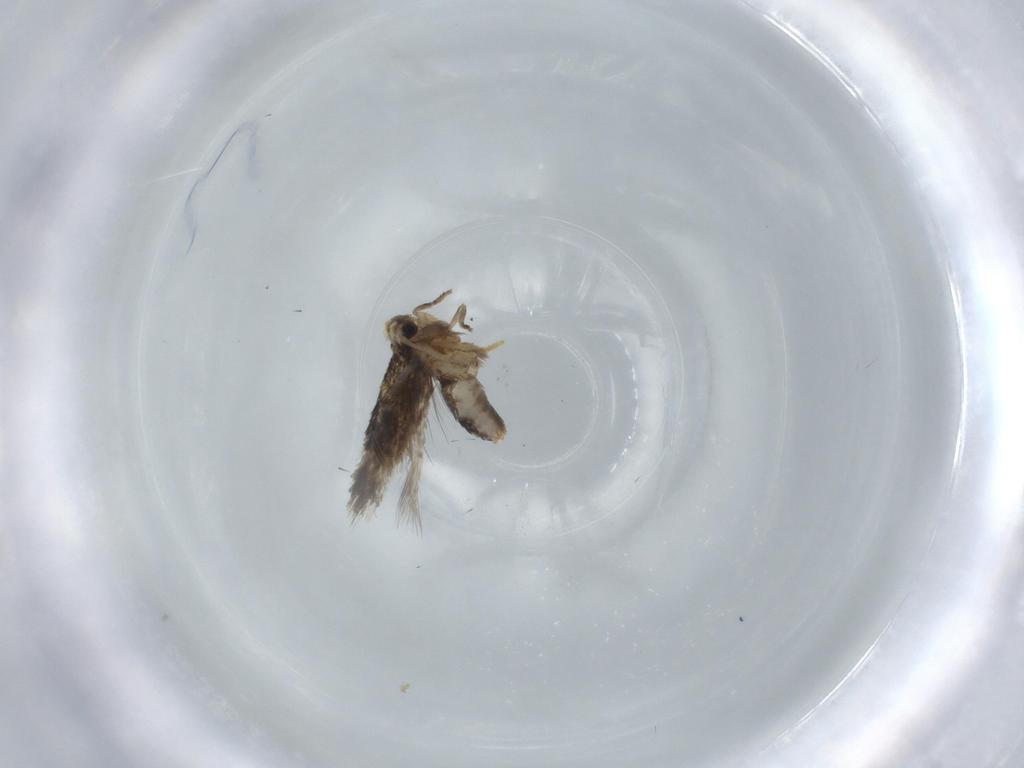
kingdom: Animalia
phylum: Arthropoda
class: Insecta
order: Lepidoptera
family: Nepticulidae
